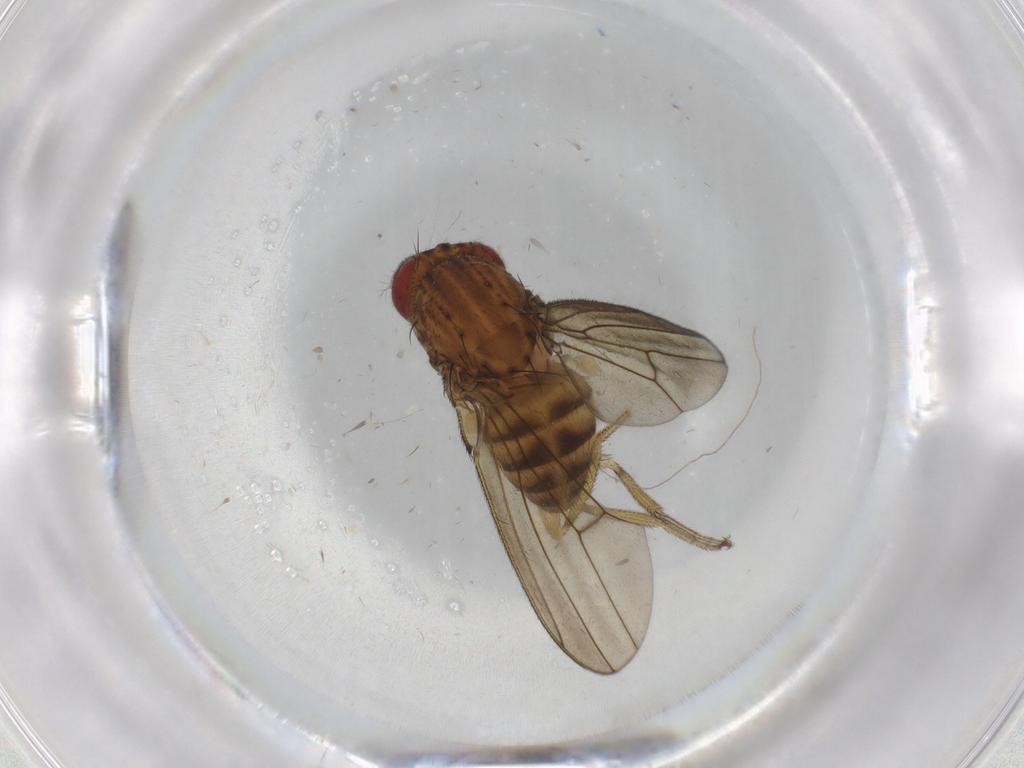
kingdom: Animalia
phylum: Arthropoda
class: Insecta
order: Diptera
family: Drosophilidae
